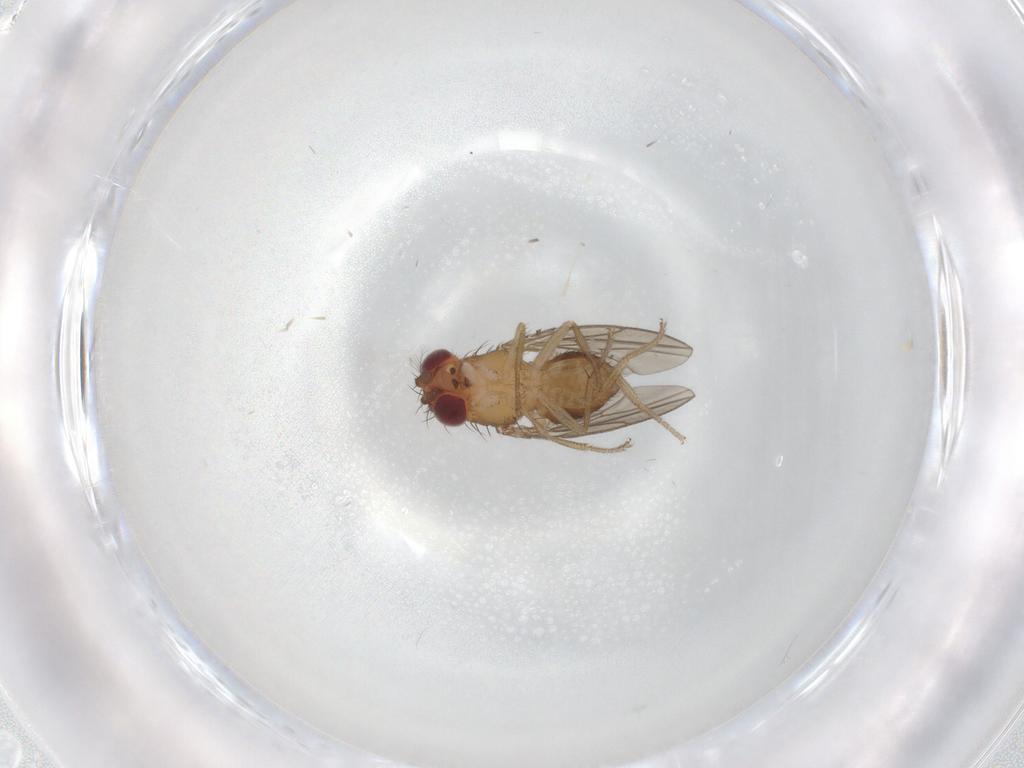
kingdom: Animalia
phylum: Arthropoda
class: Insecta
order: Diptera
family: Drosophilidae
